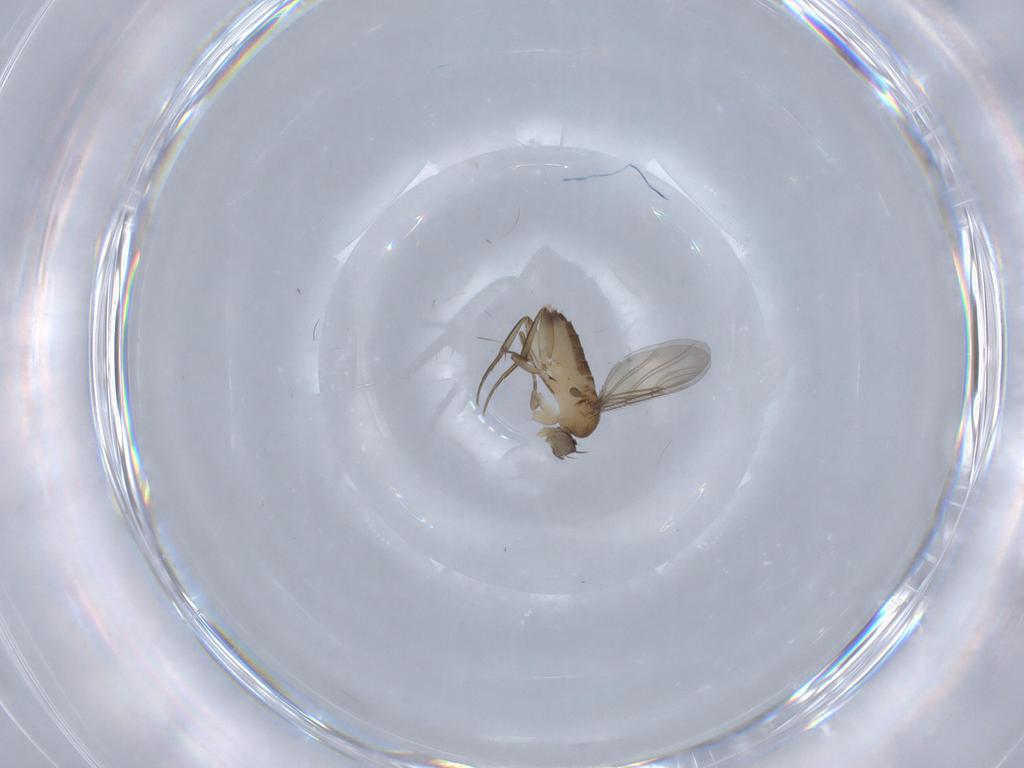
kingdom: Animalia
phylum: Arthropoda
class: Insecta
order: Diptera
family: Phoridae
